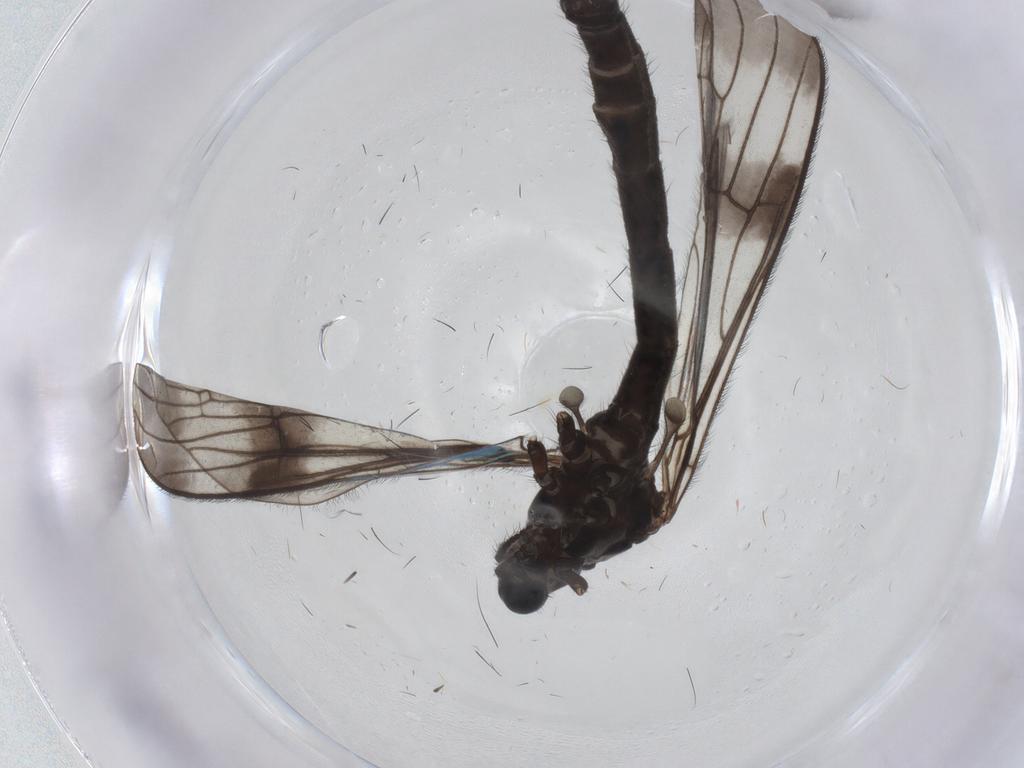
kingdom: Animalia
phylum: Arthropoda
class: Insecta
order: Diptera
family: Limoniidae
